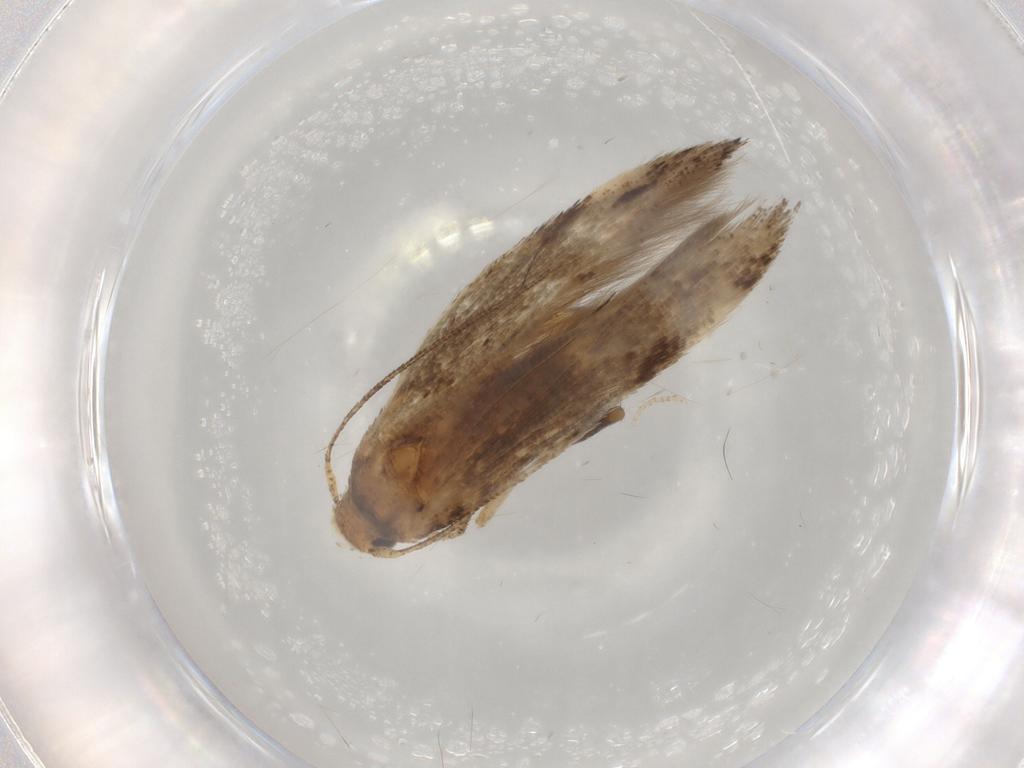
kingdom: Animalia
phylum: Arthropoda
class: Insecta
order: Lepidoptera
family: Momphidae
